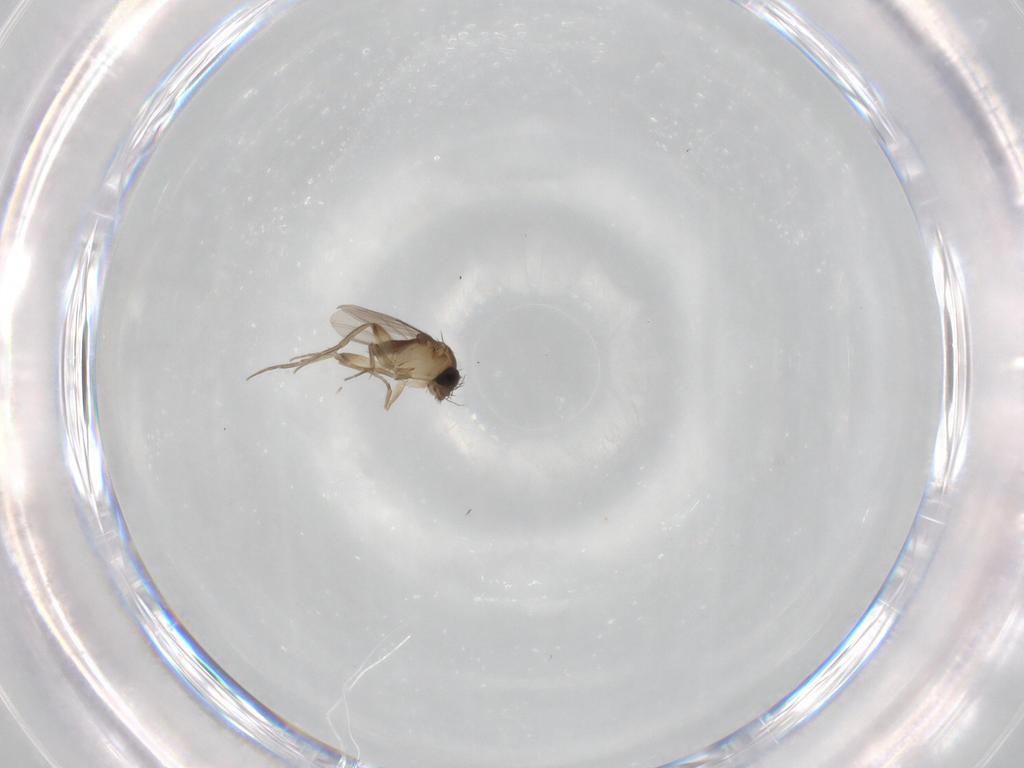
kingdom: Animalia
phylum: Arthropoda
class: Insecta
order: Diptera
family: Phoridae
